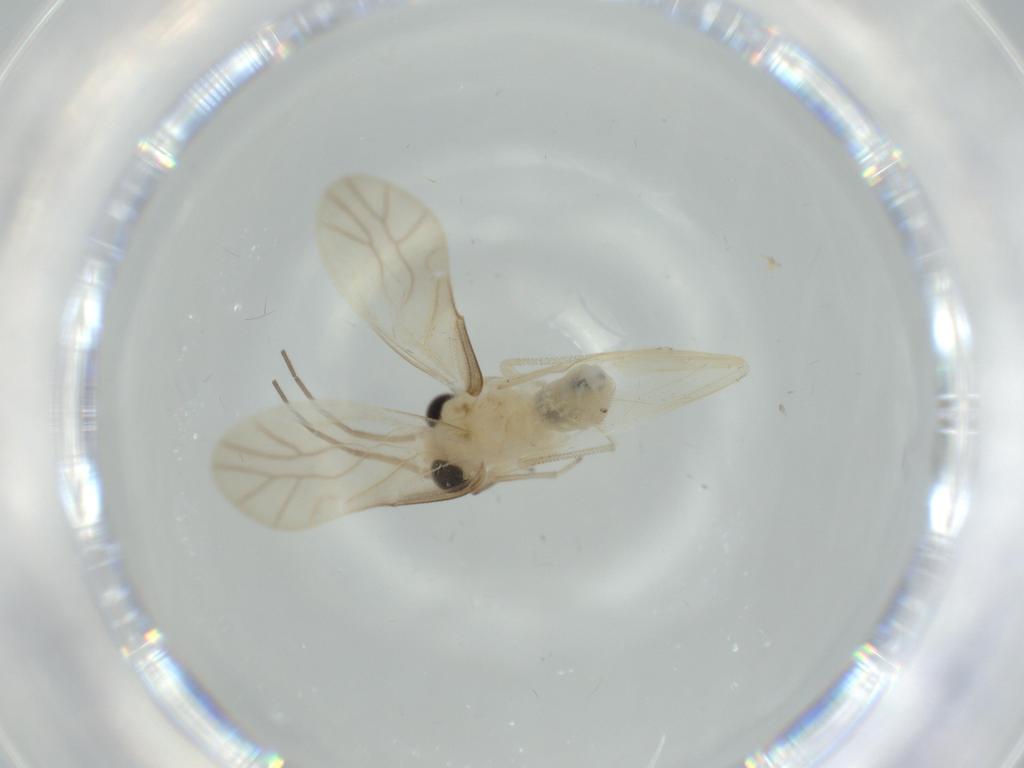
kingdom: Animalia
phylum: Arthropoda
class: Insecta
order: Psocodea
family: Caeciliusidae
